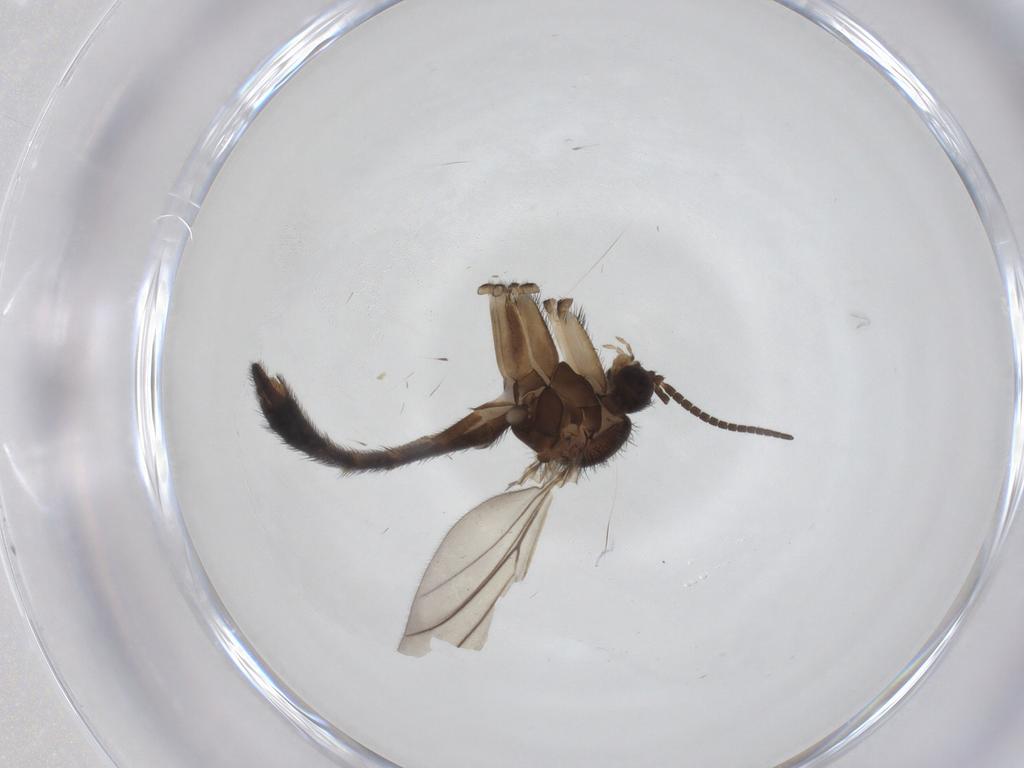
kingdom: Animalia
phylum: Arthropoda
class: Insecta
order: Diptera
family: Keroplatidae
